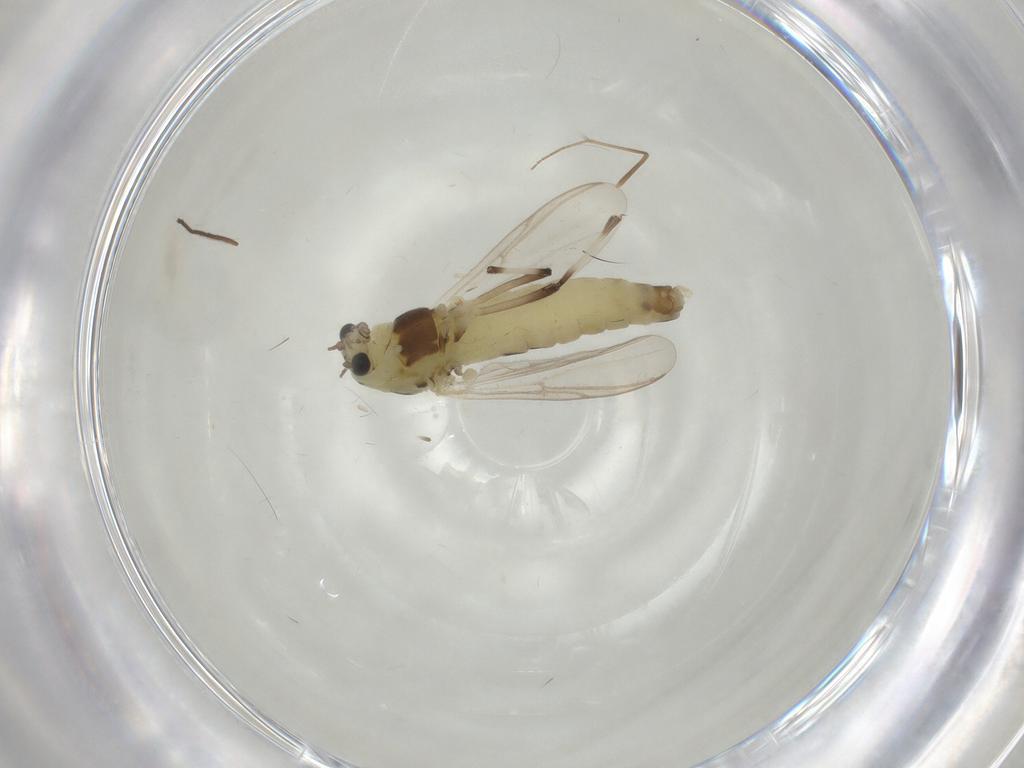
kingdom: Animalia
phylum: Arthropoda
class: Insecta
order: Diptera
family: Chironomidae
